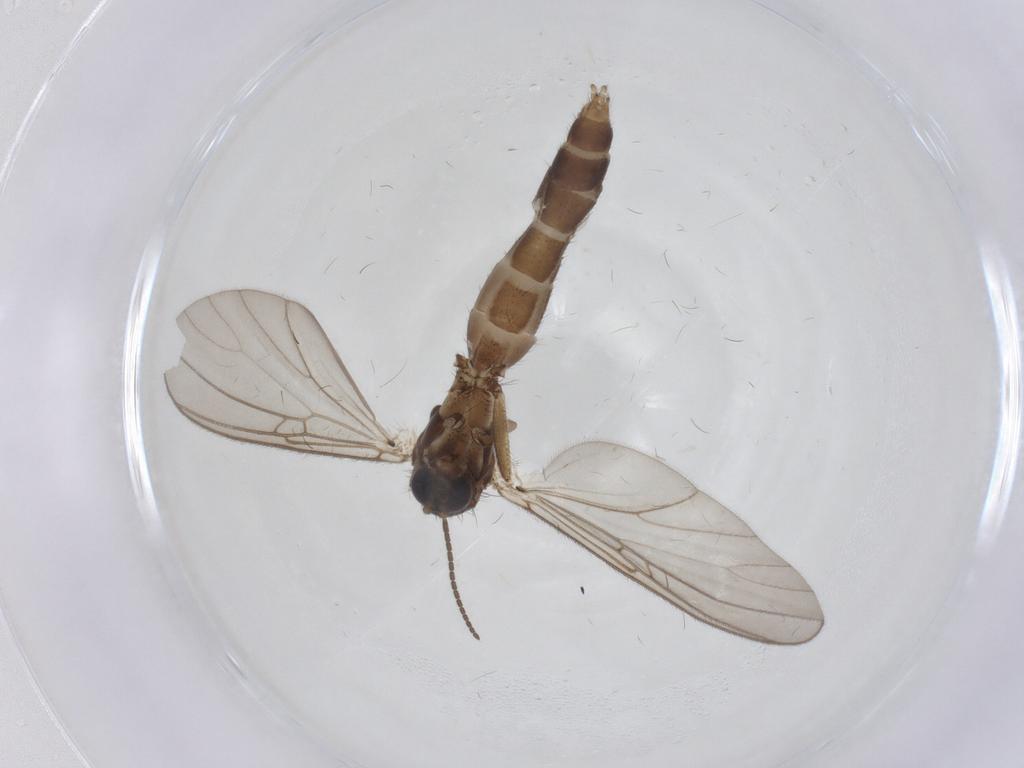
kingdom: Animalia
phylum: Arthropoda
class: Insecta
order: Diptera
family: Mycetophilidae
